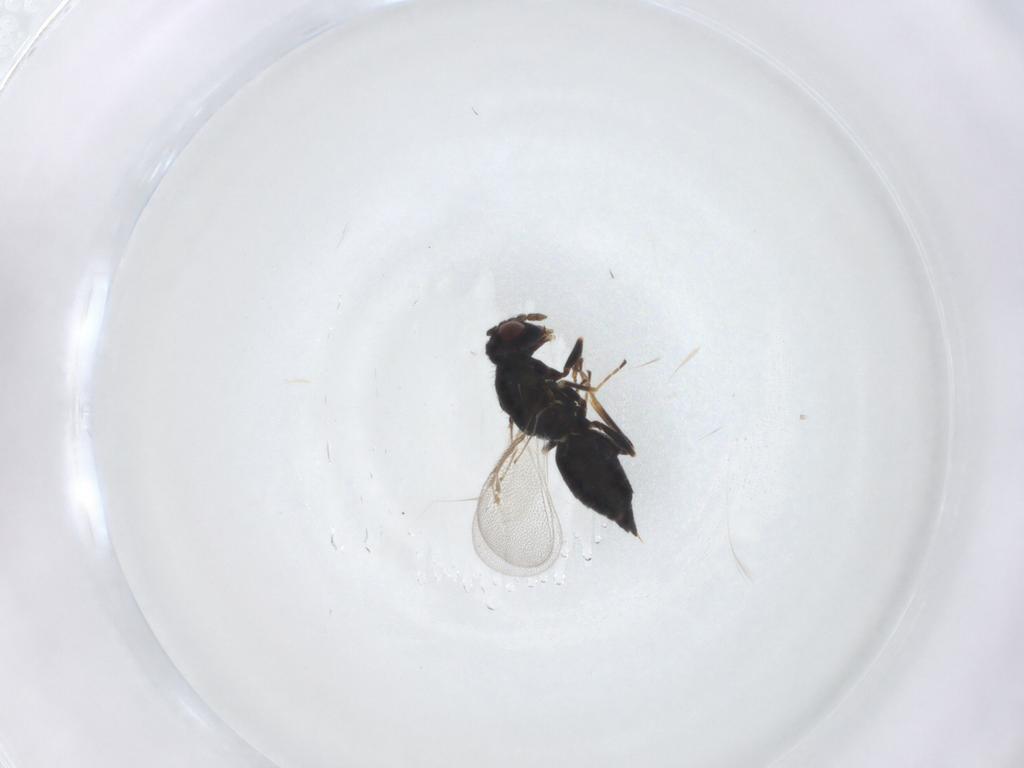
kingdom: Animalia
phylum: Arthropoda
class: Insecta
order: Hymenoptera
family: Eulophidae
